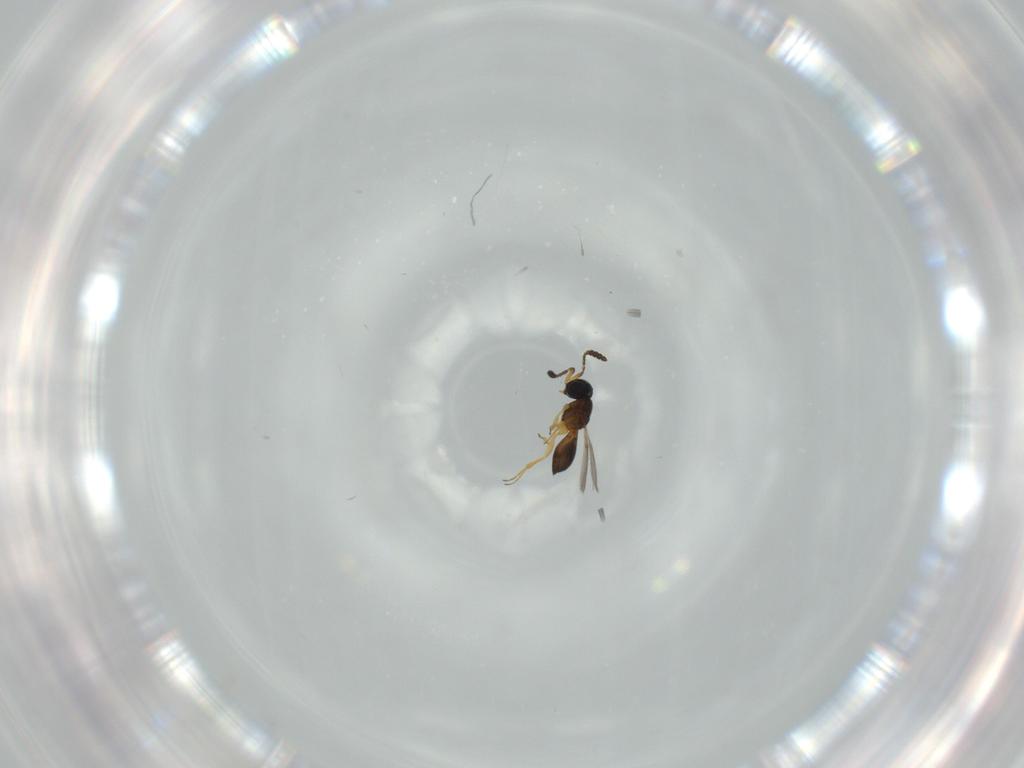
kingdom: Animalia
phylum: Arthropoda
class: Insecta
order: Hymenoptera
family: Scelionidae
